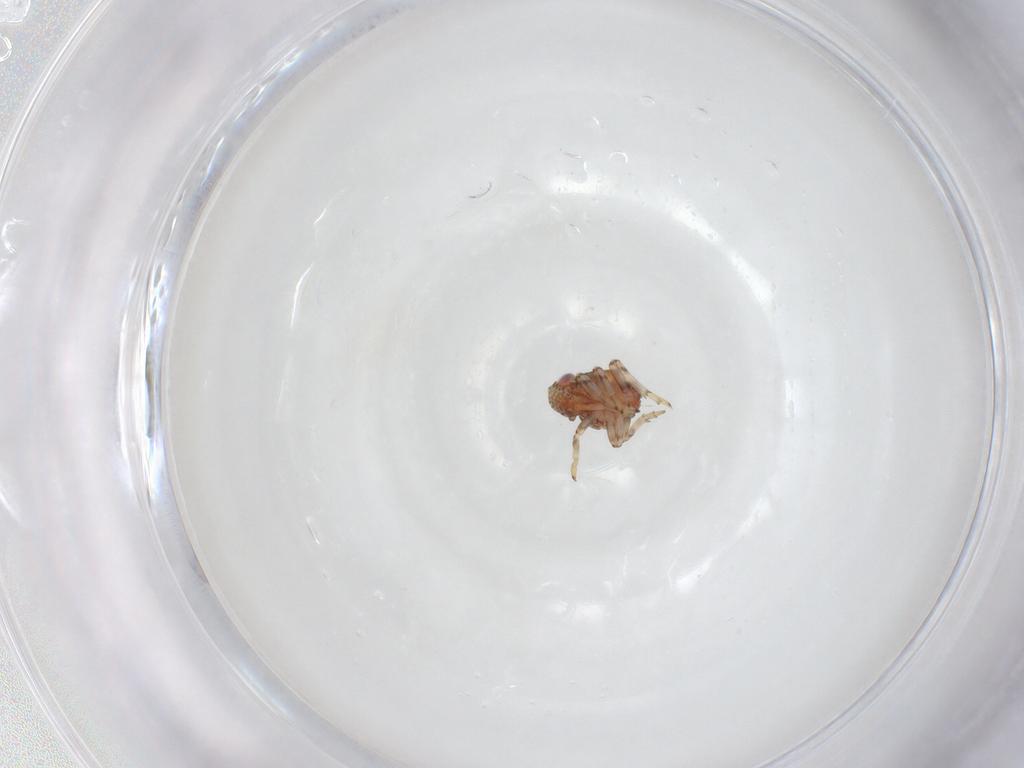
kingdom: Animalia
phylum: Arthropoda
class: Insecta
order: Hemiptera
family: Issidae
